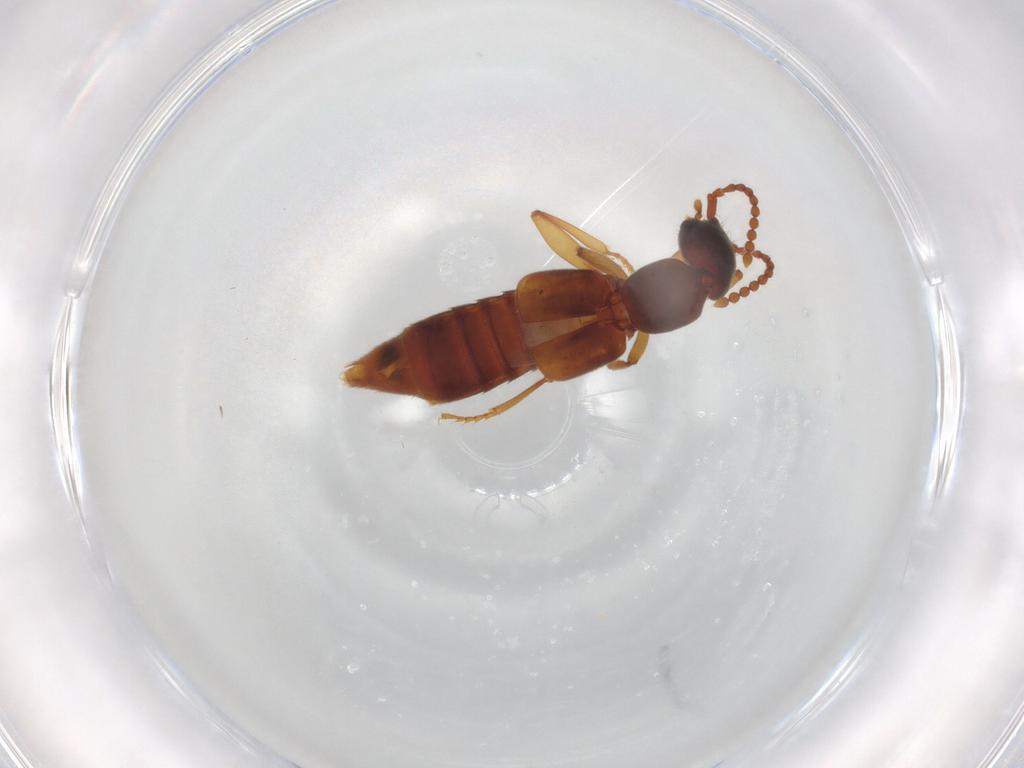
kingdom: Animalia
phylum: Arthropoda
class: Insecta
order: Coleoptera
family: Staphylinidae
